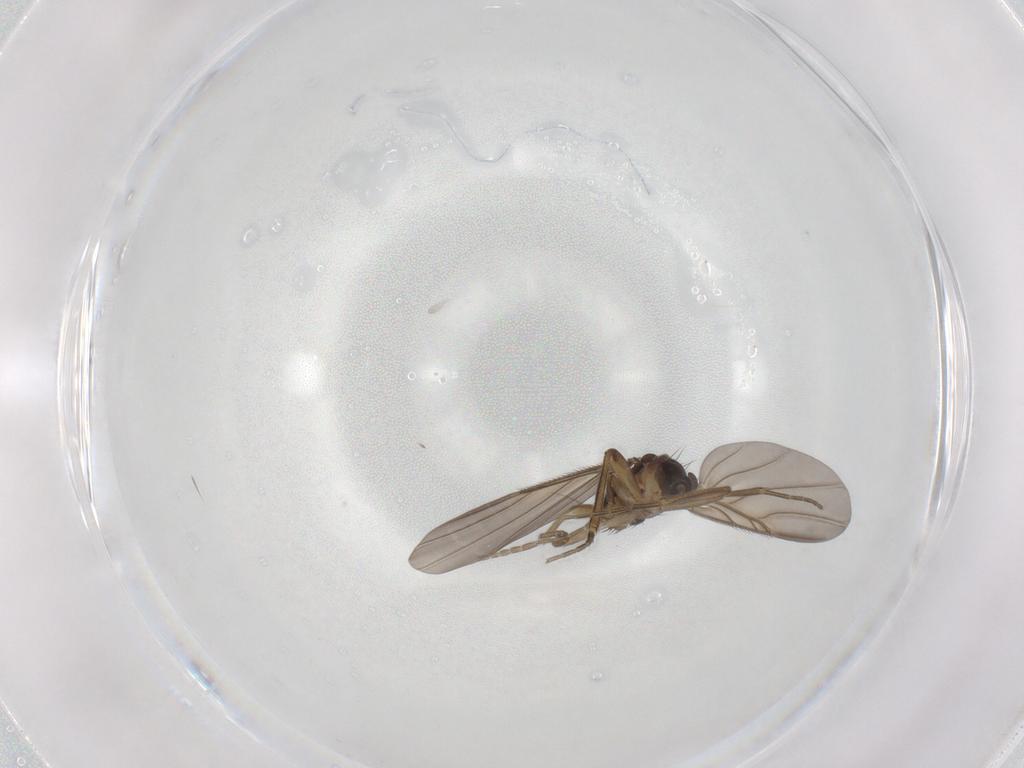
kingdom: Animalia
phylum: Arthropoda
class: Insecta
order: Diptera
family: Phoridae
